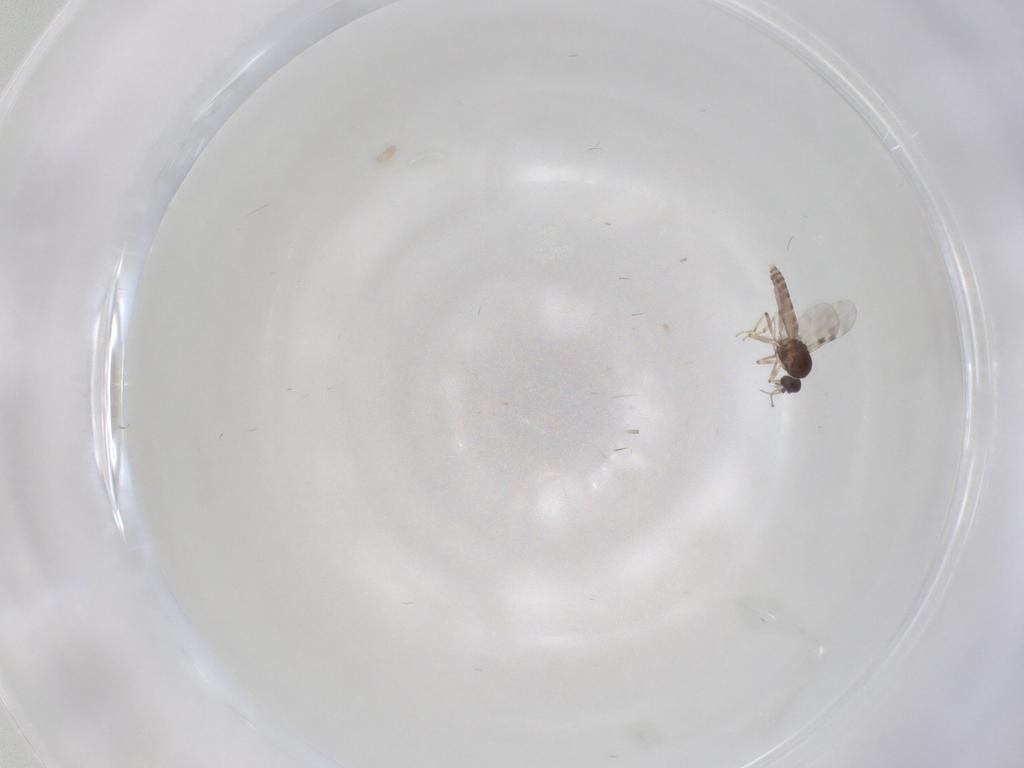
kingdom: Animalia
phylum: Arthropoda
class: Insecta
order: Diptera
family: Psychodidae
